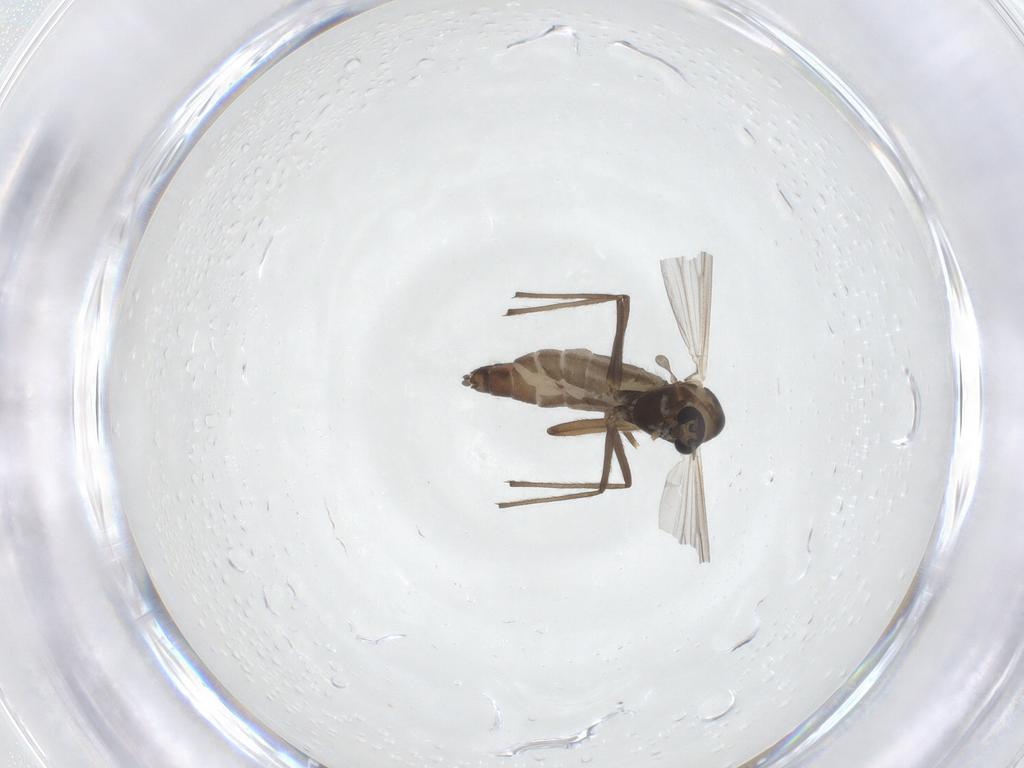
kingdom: Animalia
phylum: Arthropoda
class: Insecta
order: Diptera
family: Chironomidae
